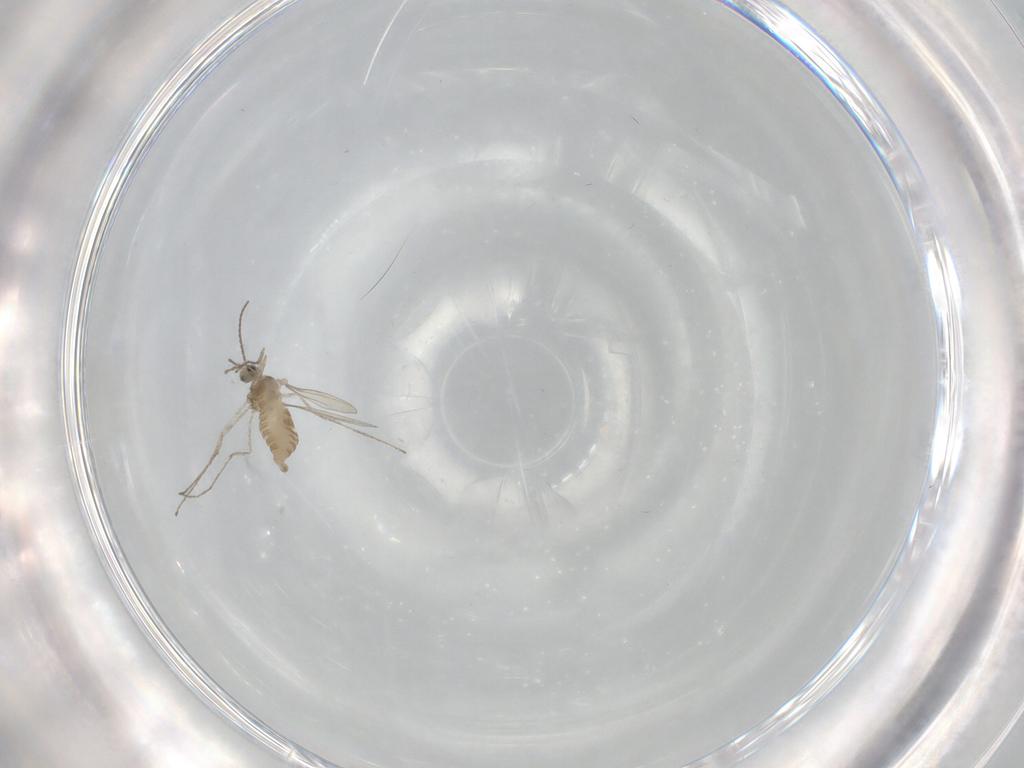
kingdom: Animalia
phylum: Arthropoda
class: Insecta
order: Diptera
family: Cecidomyiidae
